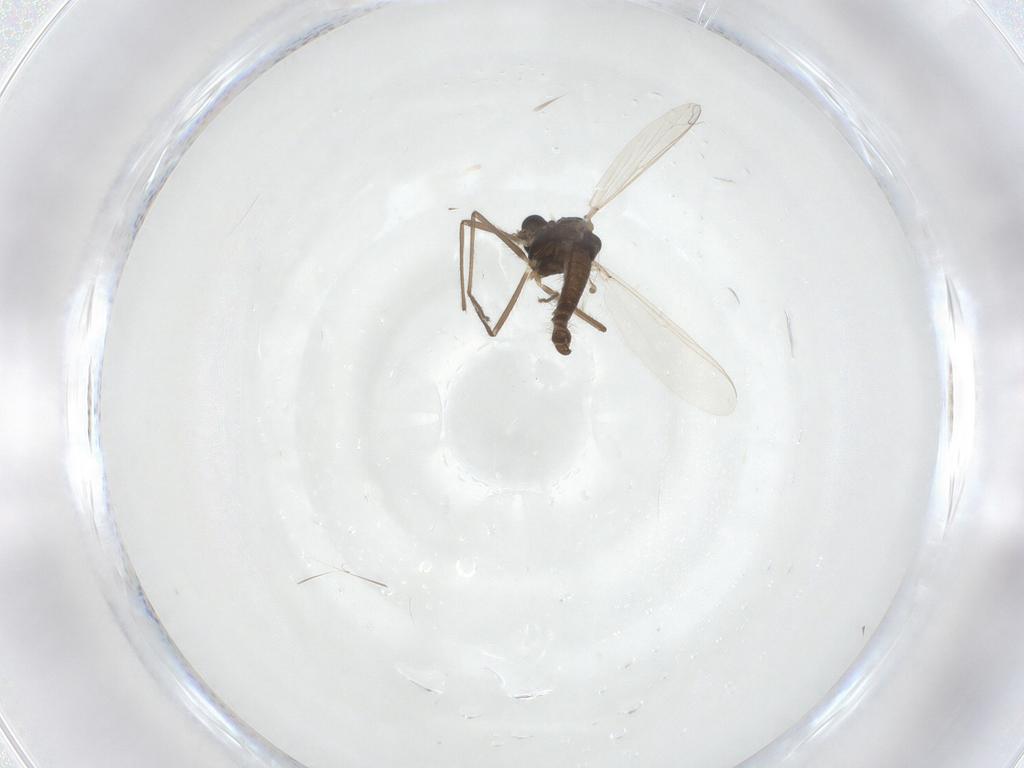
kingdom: Animalia
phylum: Arthropoda
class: Insecta
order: Diptera
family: Chironomidae
